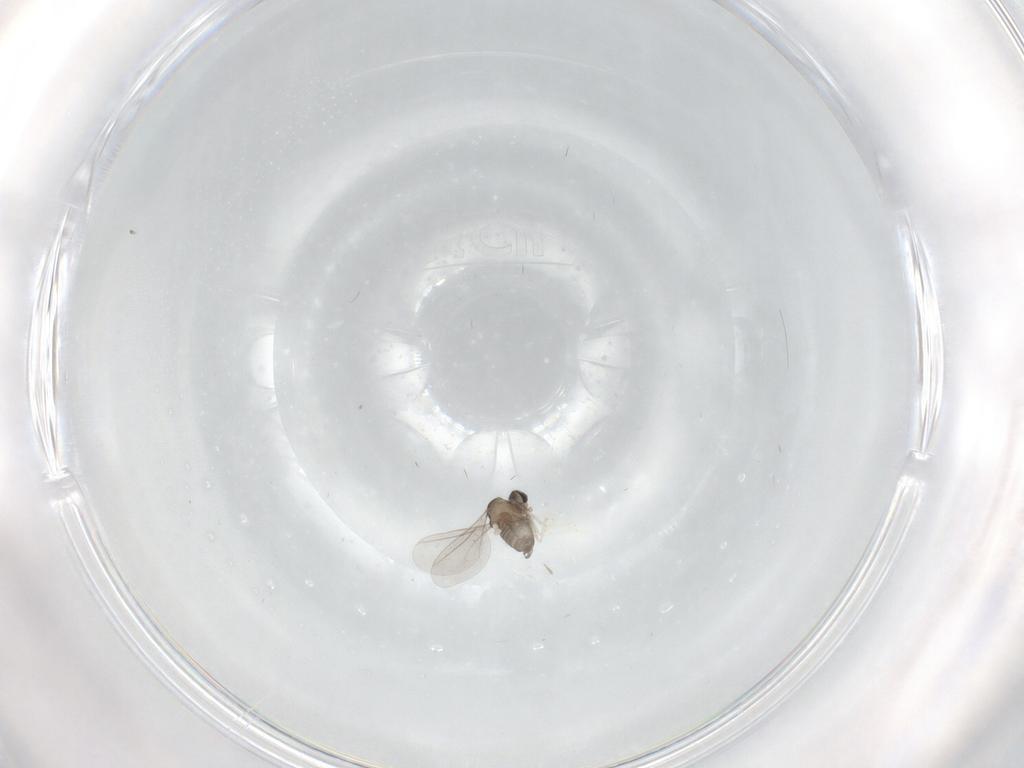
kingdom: Animalia
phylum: Arthropoda
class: Insecta
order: Diptera
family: Cecidomyiidae
